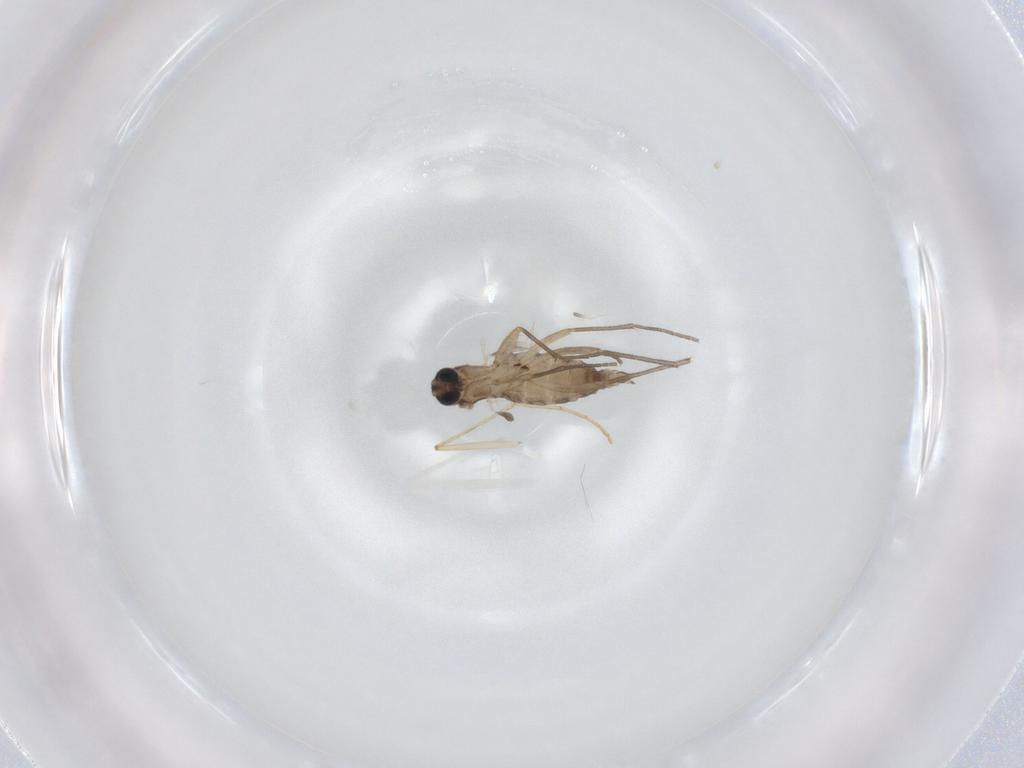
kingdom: Animalia
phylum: Arthropoda
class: Insecta
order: Diptera
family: Sciaridae
